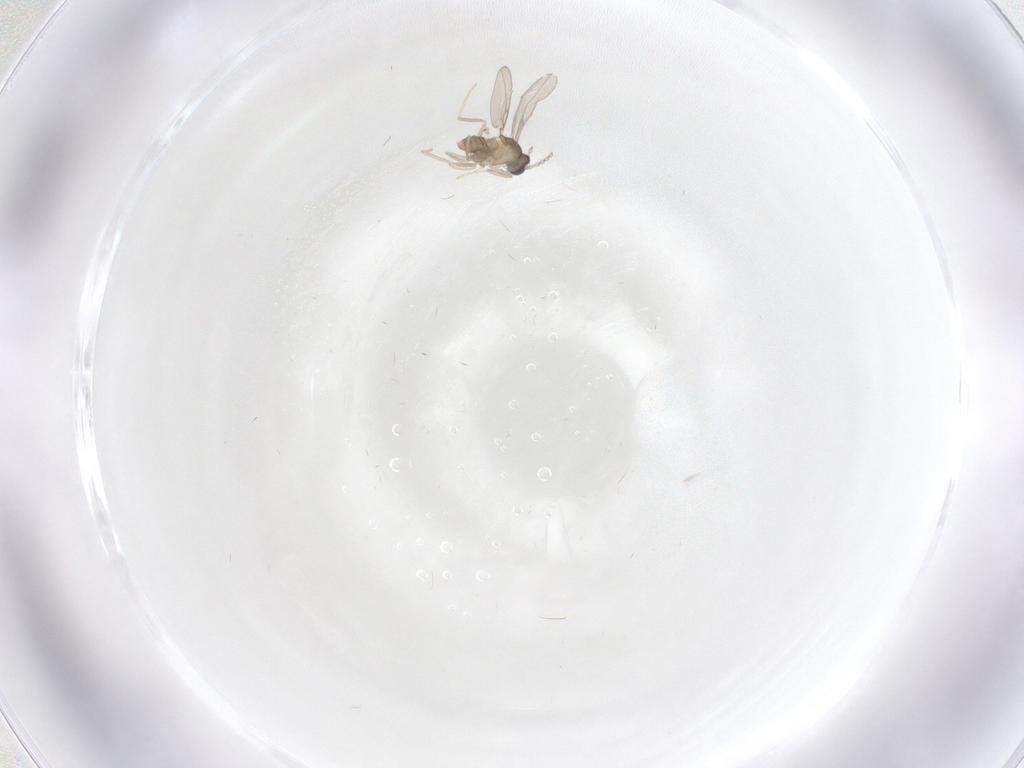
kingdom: Animalia
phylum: Arthropoda
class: Insecta
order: Diptera
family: Cecidomyiidae
